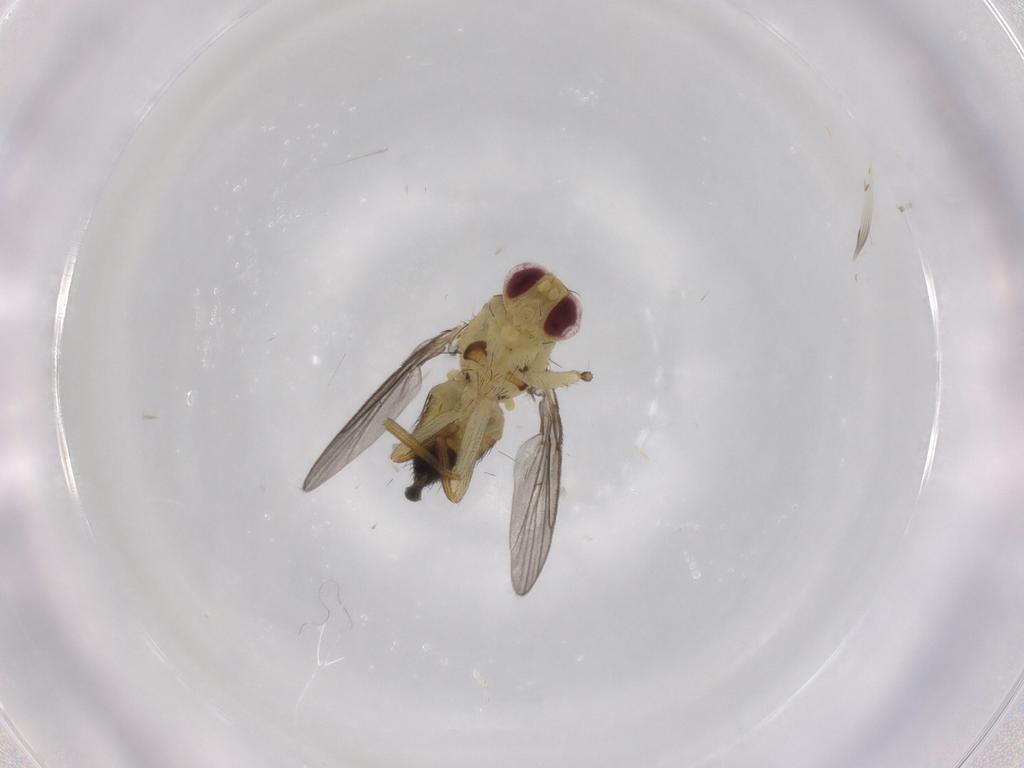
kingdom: Animalia
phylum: Arthropoda
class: Insecta
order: Diptera
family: Agromyzidae
